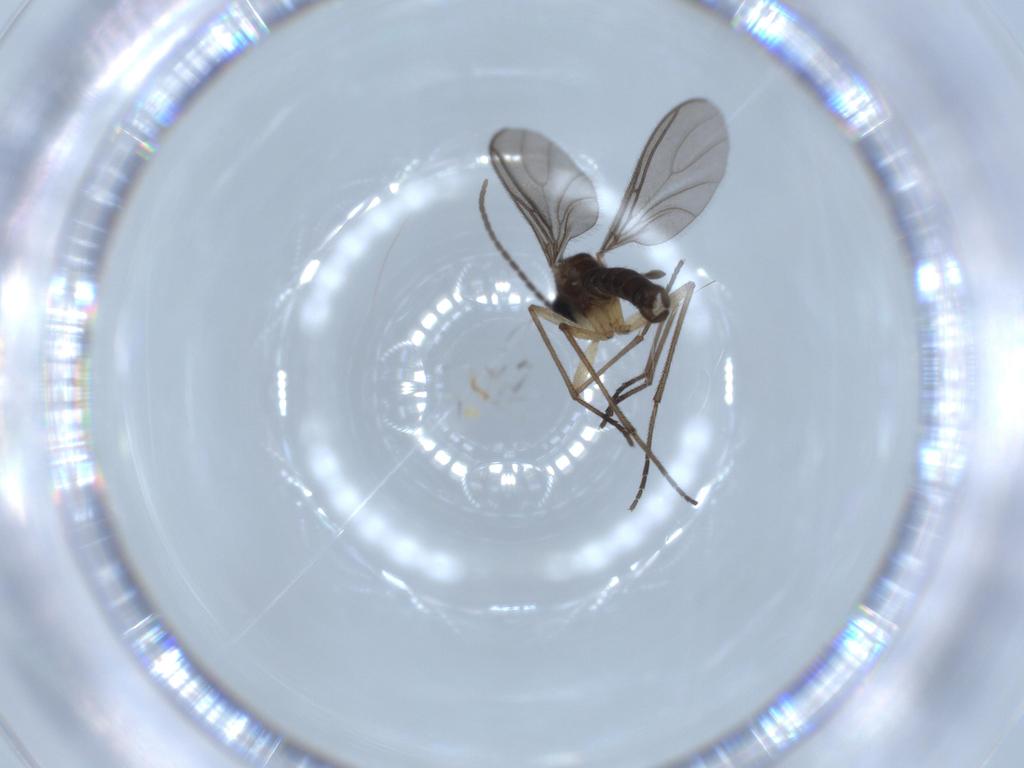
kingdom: Animalia
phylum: Arthropoda
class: Insecta
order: Diptera
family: Sciaridae
